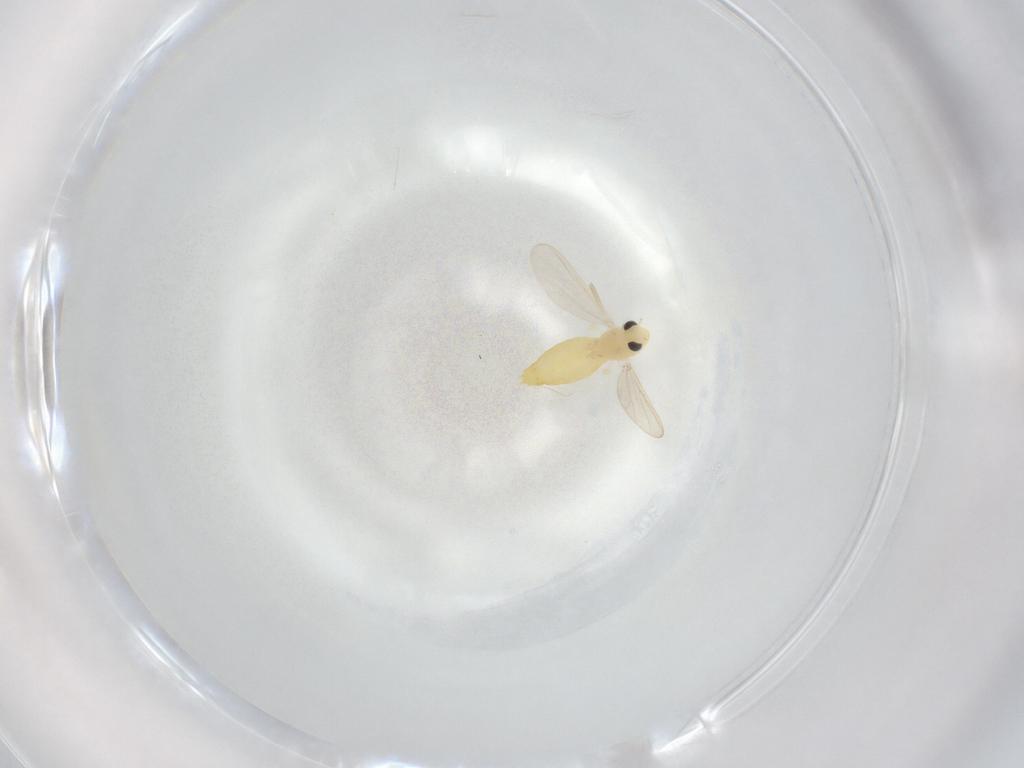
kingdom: Animalia
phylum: Arthropoda
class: Insecta
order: Diptera
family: Chironomidae
